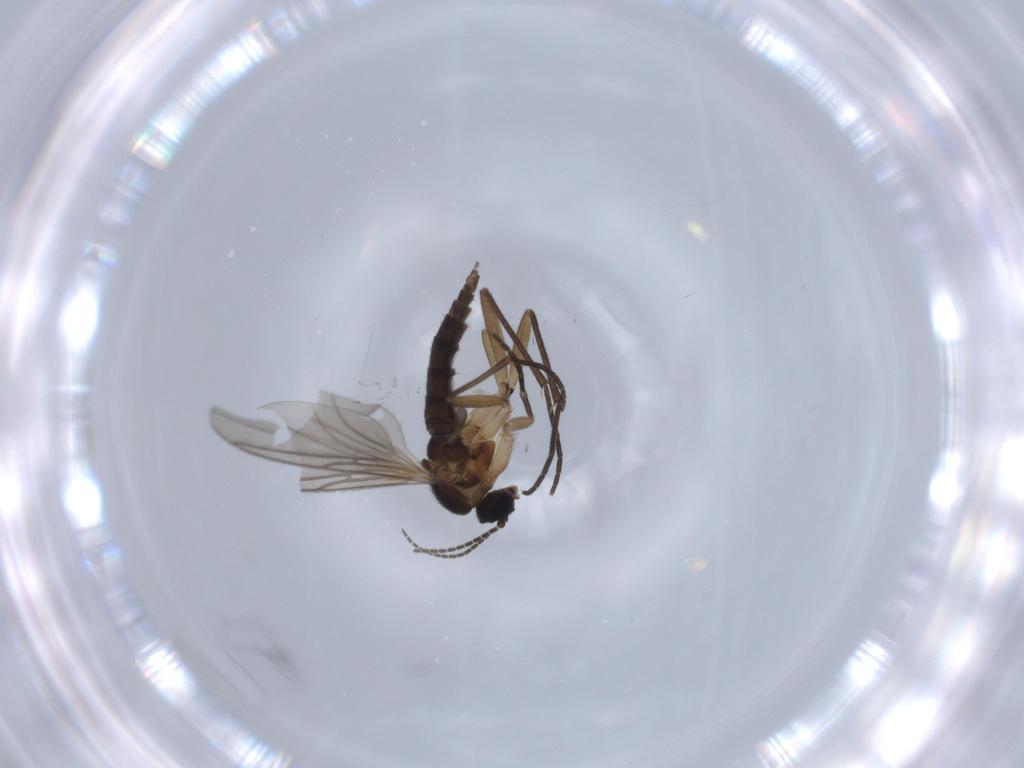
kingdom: Animalia
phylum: Arthropoda
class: Insecta
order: Diptera
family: Sciaridae
